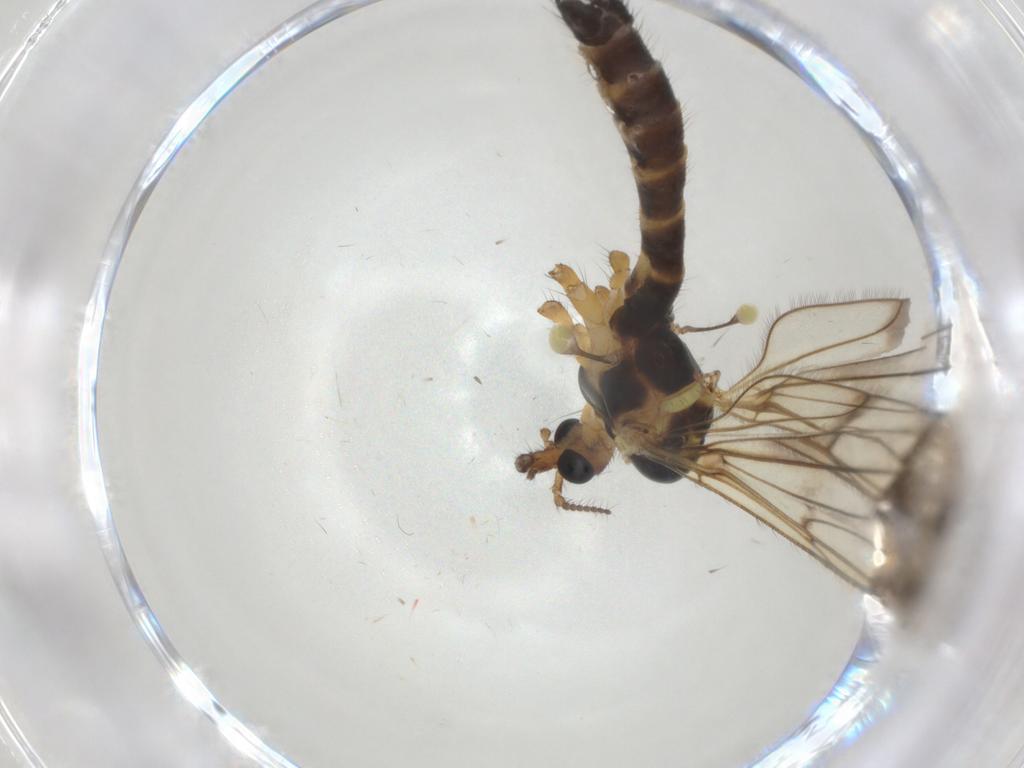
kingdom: Animalia
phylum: Arthropoda
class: Insecta
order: Diptera
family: Limoniidae
